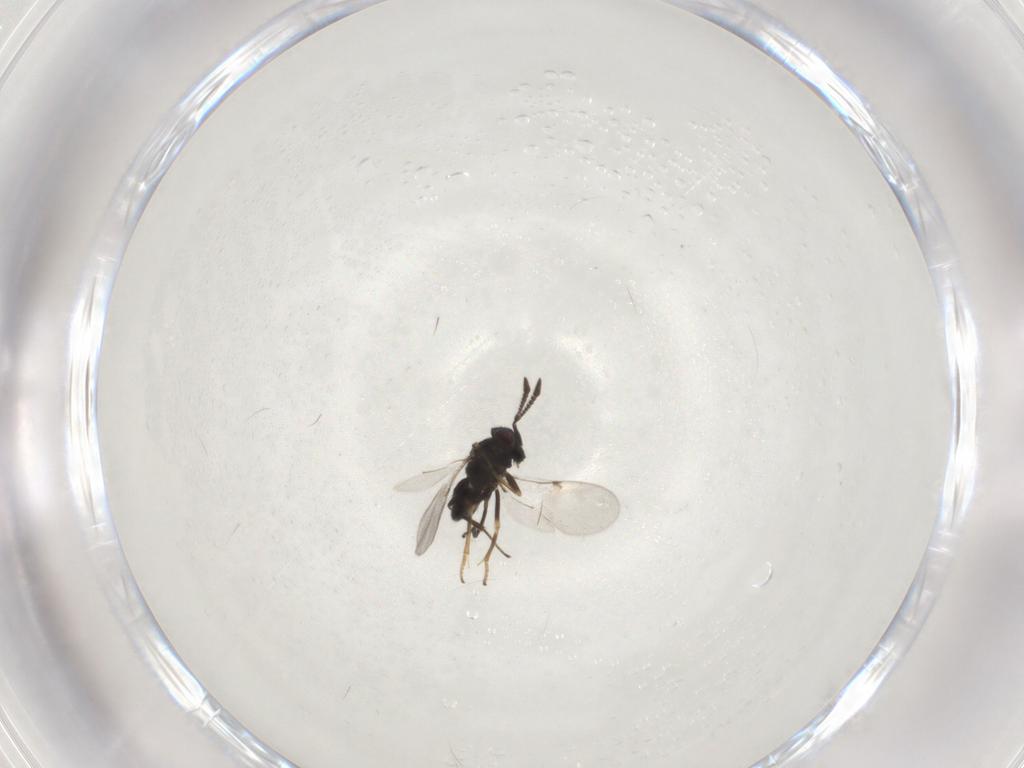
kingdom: Animalia
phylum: Arthropoda
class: Insecta
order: Hymenoptera
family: Encyrtidae
